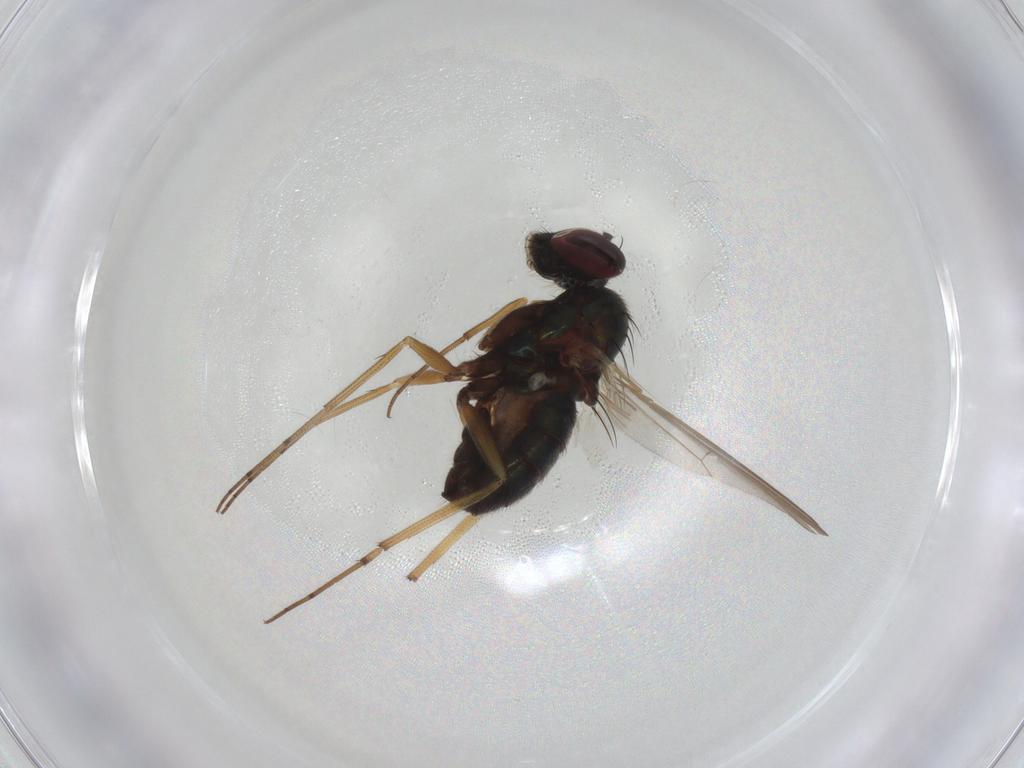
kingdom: Animalia
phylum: Arthropoda
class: Insecta
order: Diptera
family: Dolichopodidae
